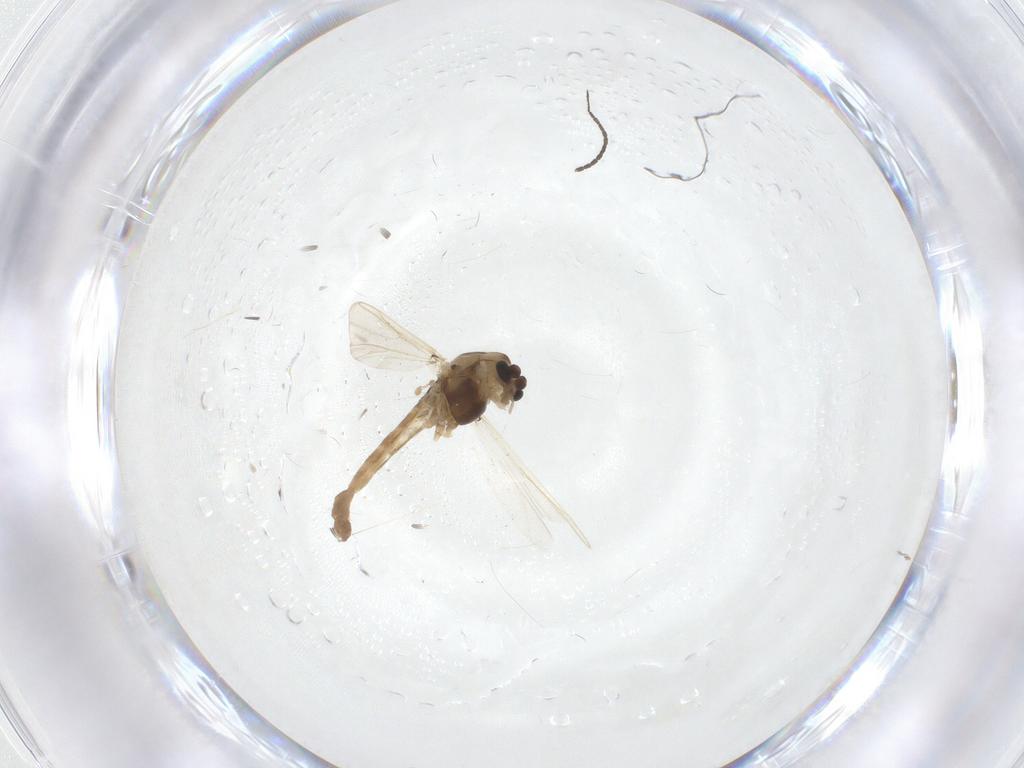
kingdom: Animalia
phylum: Arthropoda
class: Insecta
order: Diptera
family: Chironomidae
